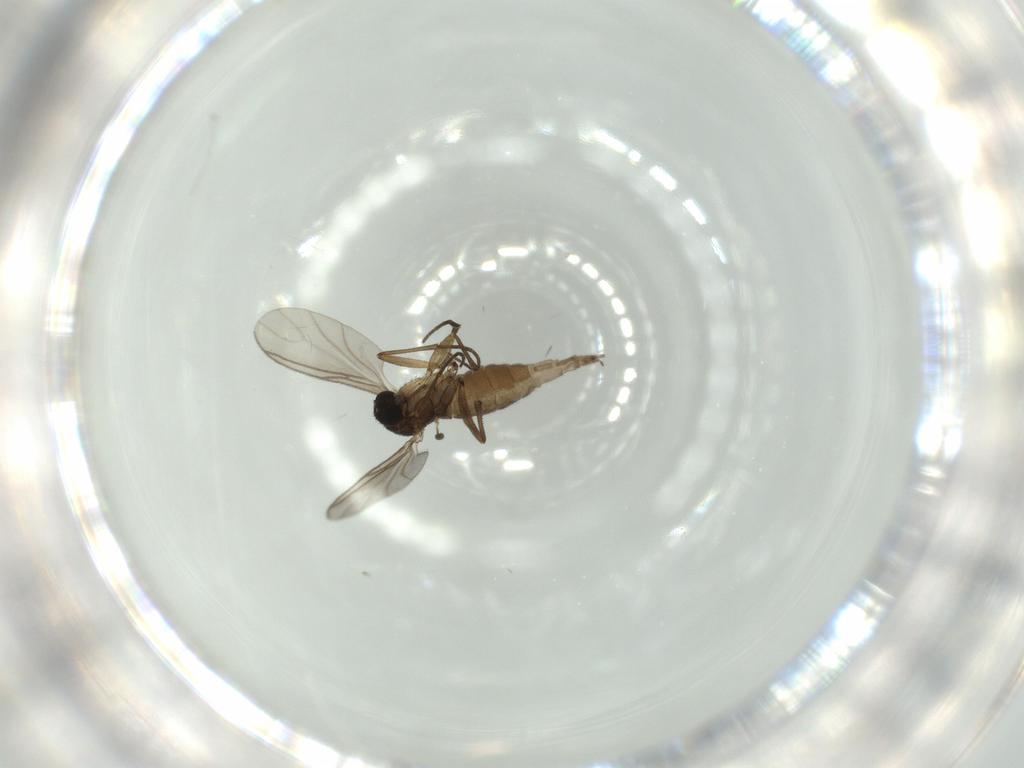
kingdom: Animalia
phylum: Arthropoda
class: Insecta
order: Diptera
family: Sciaridae
